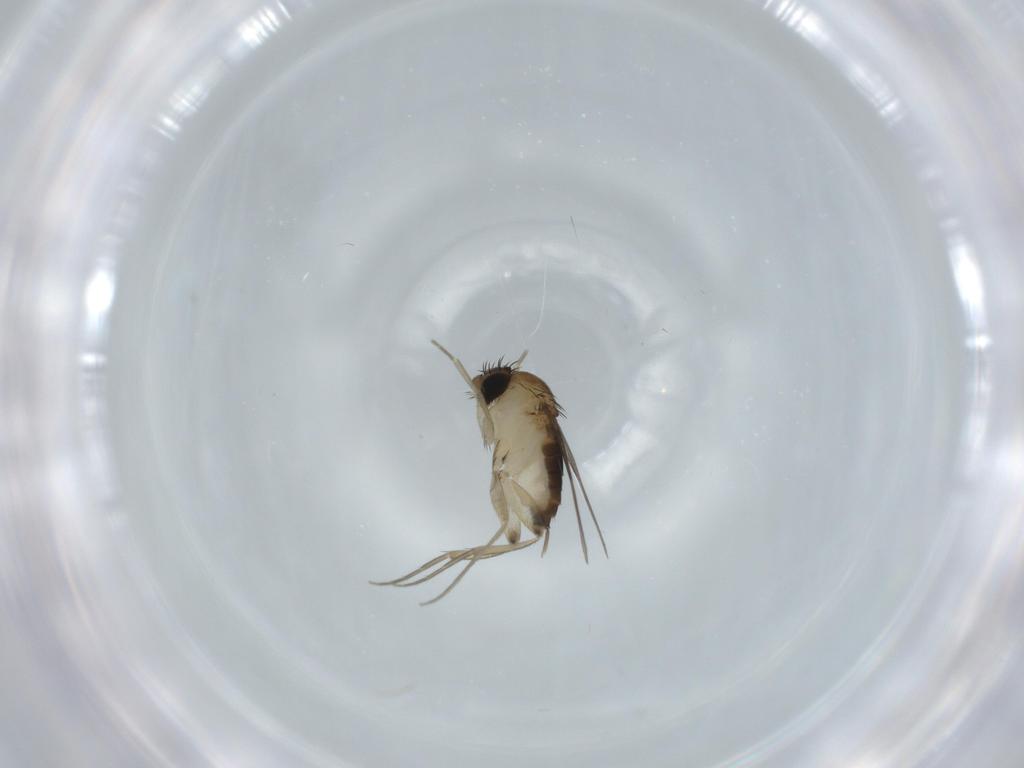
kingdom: Animalia
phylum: Arthropoda
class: Insecta
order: Diptera
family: Phoridae
